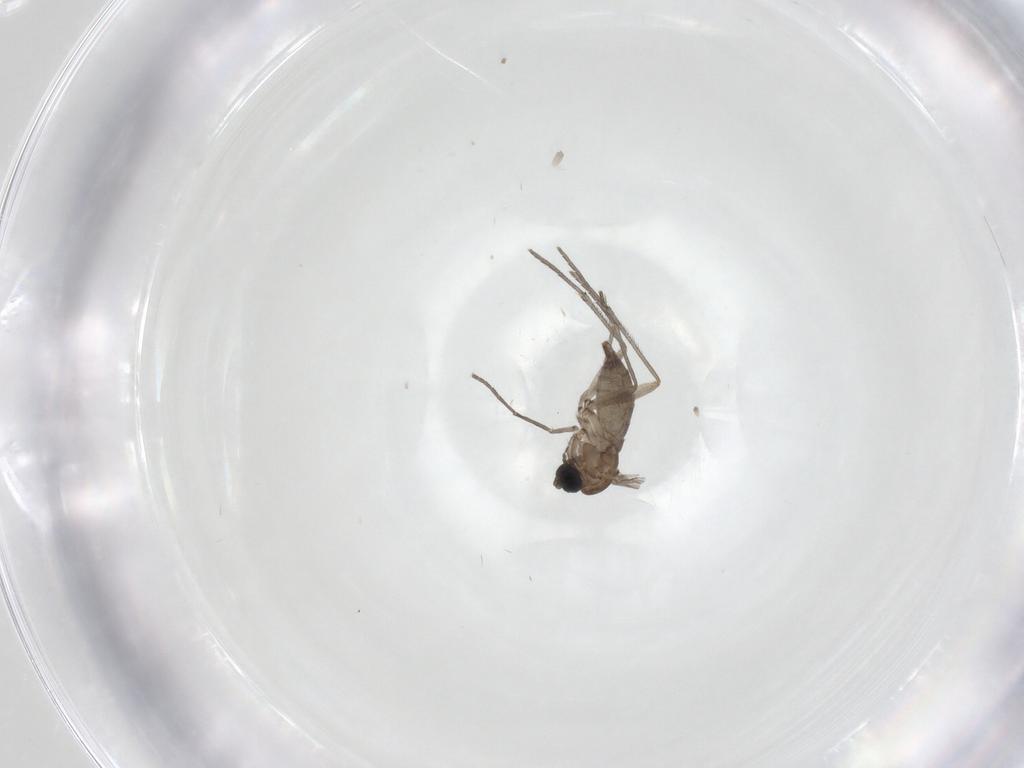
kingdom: Animalia
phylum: Arthropoda
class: Insecta
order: Diptera
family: Sciaridae
